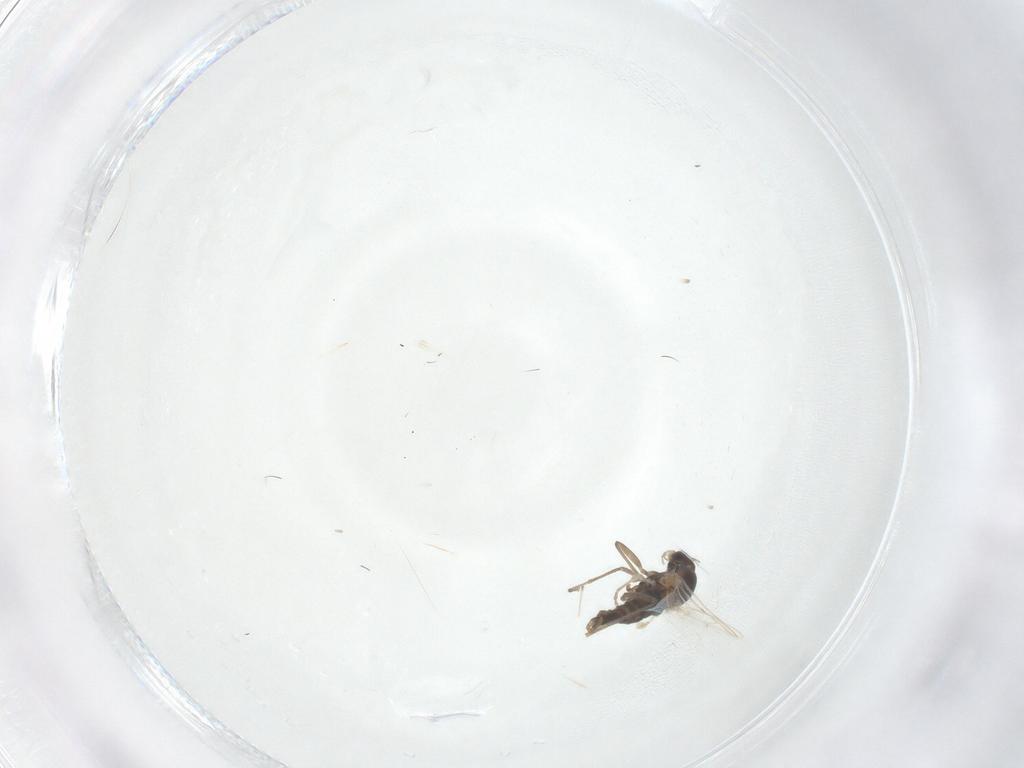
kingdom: Animalia
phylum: Arthropoda
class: Insecta
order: Diptera
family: Cecidomyiidae
